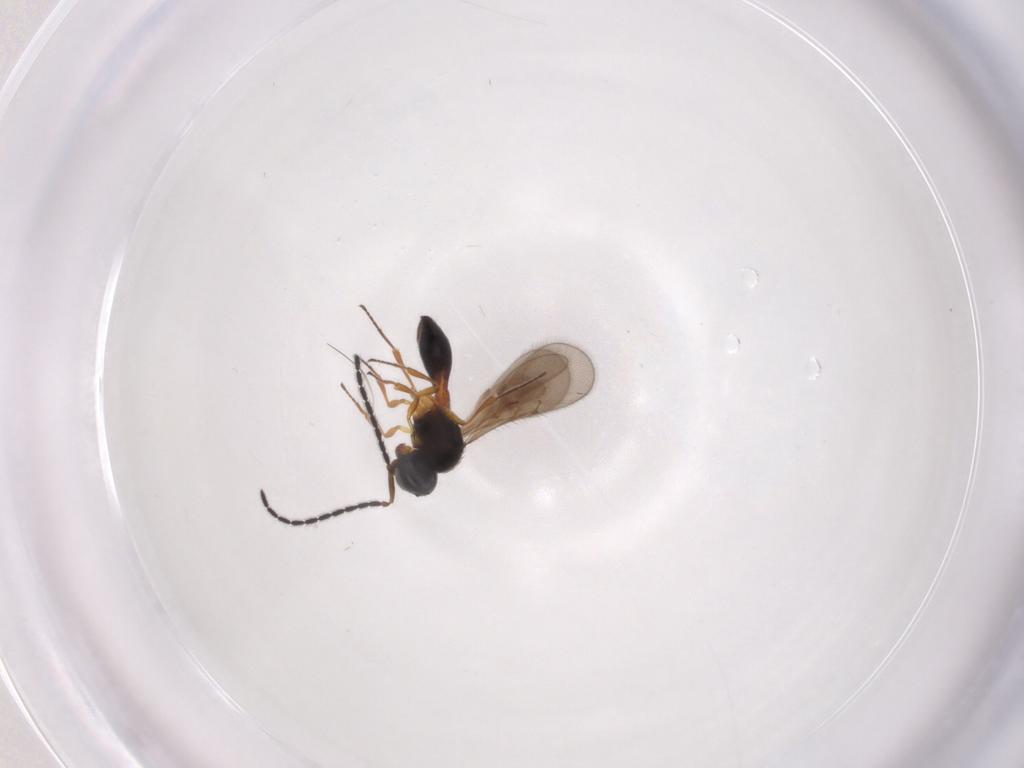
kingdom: Animalia
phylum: Arthropoda
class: Insecta
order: Hymenoptera
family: Scelionidae
